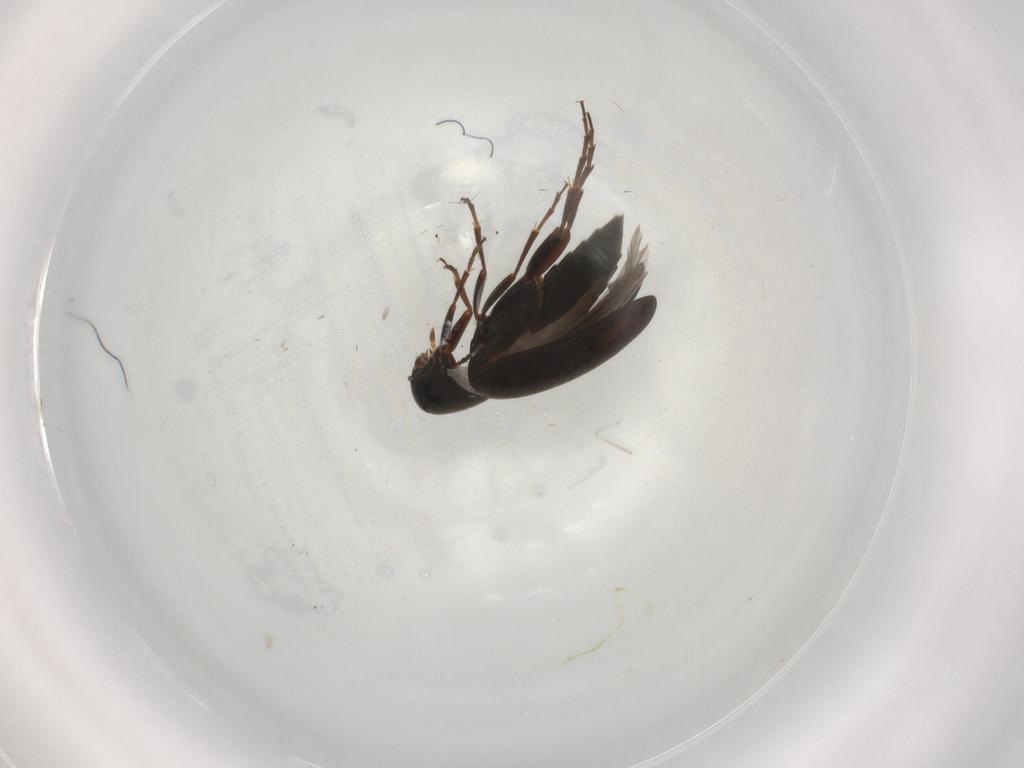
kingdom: Animalia
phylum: Arthropoda
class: Insecta
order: Coleoptera
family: Scraptiidae
